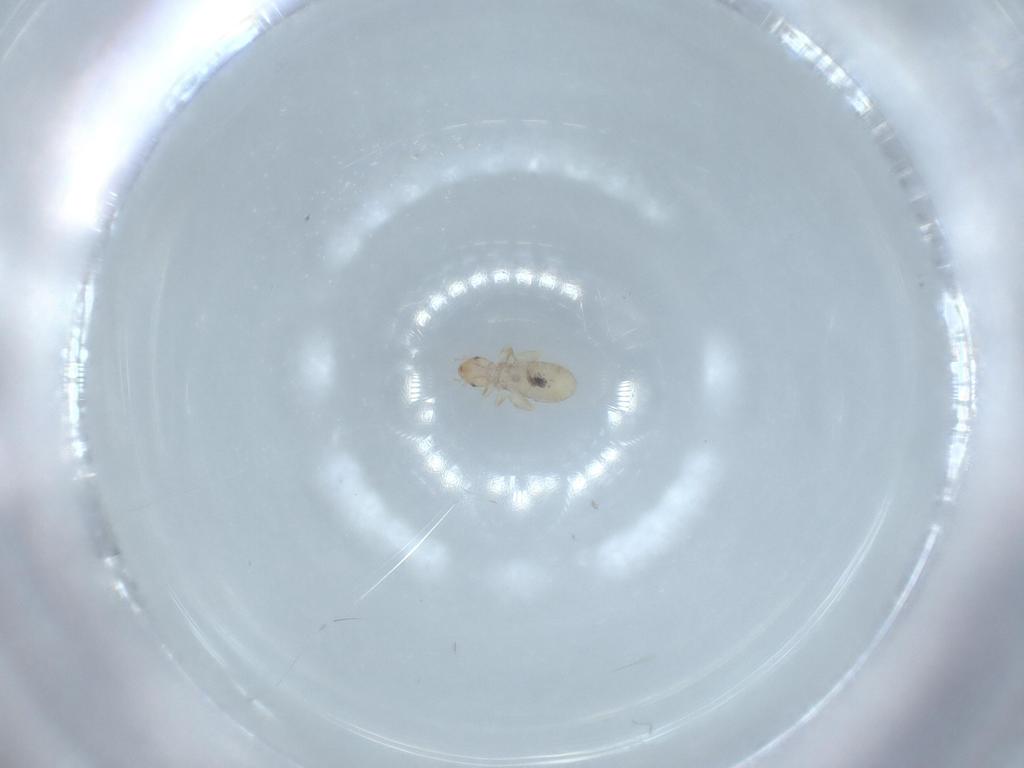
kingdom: Animalia
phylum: Arthropoda
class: Insecta
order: Psocodea
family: Liposcelididae
